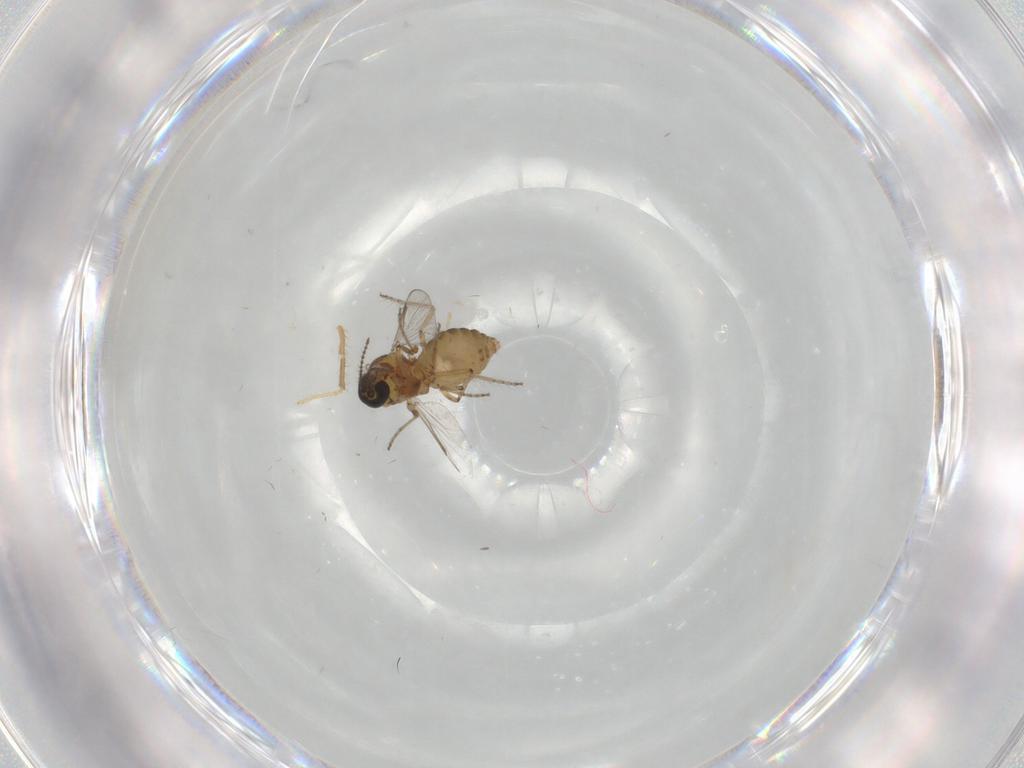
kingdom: Animalia
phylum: Arthropoda
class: Insecta
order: Diptera
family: Ceratopogonidae
